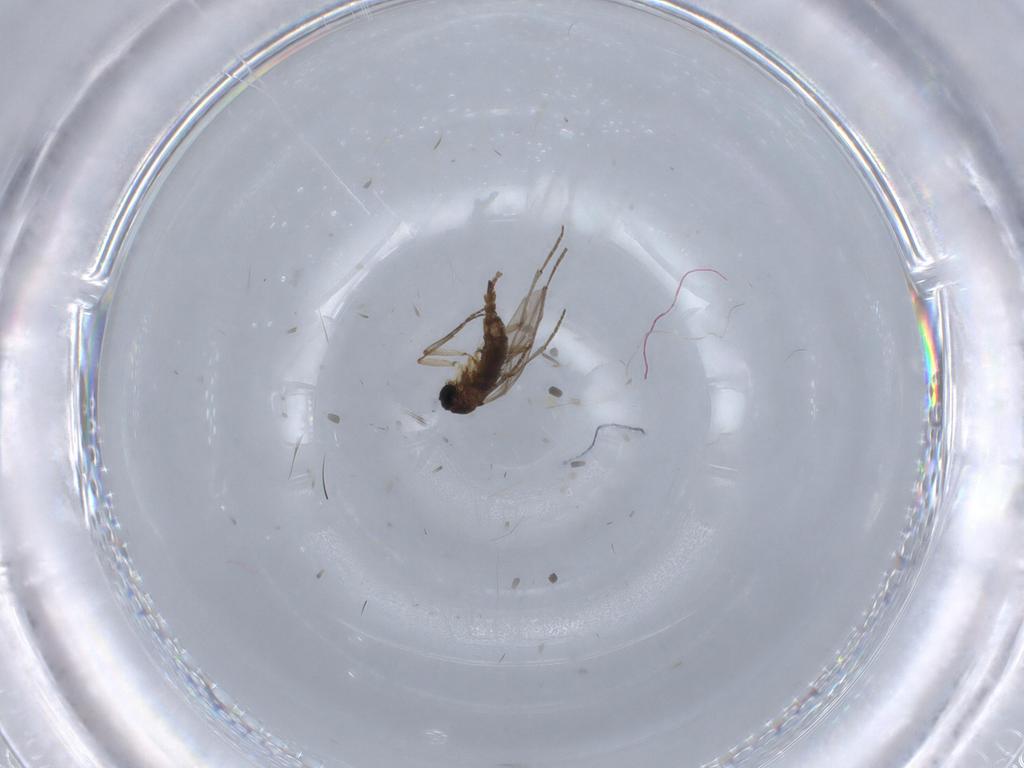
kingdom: Animalia
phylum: Arthropoda
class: Insecta
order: Diptera
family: Sciaridae
